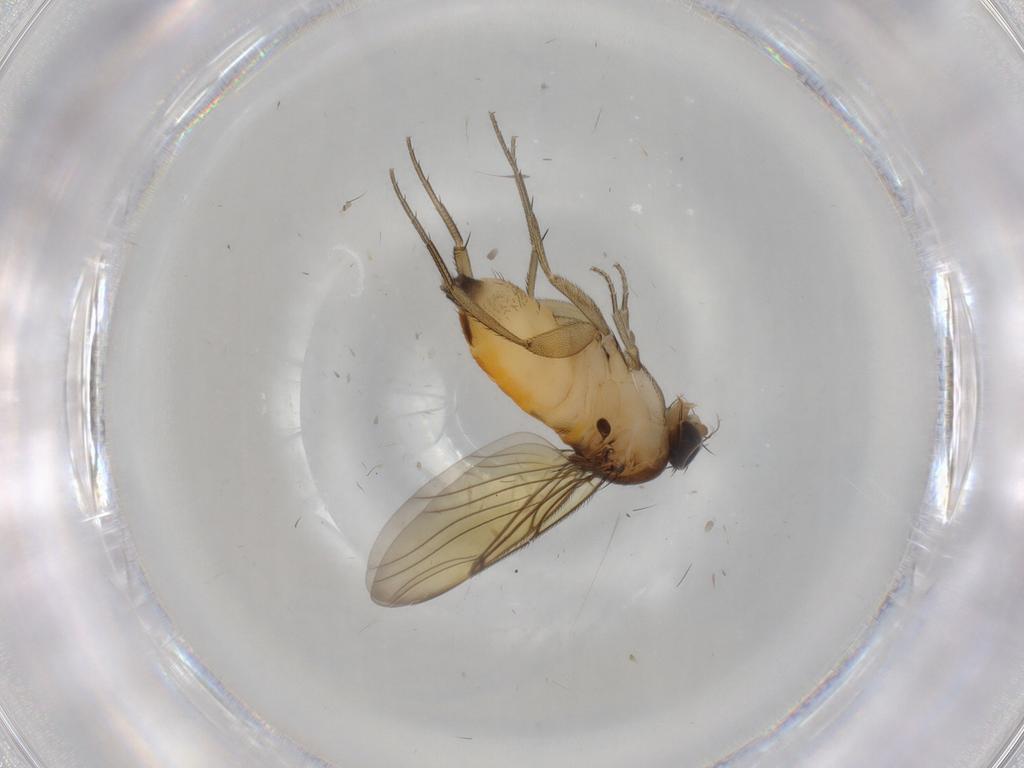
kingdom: Animalia
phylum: Arthropoda
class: Insecta
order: Diptera
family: Phoridae
